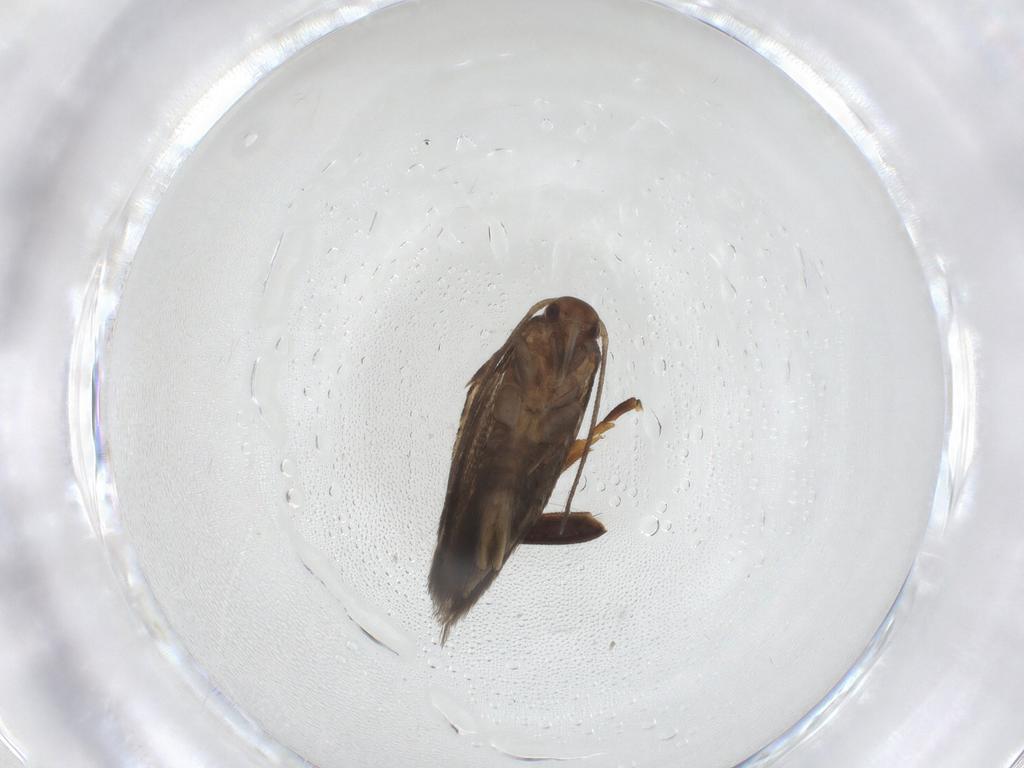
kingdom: Animalia
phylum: Arthropoda
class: Insecta
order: Lepidoptera
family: Elachistidae
